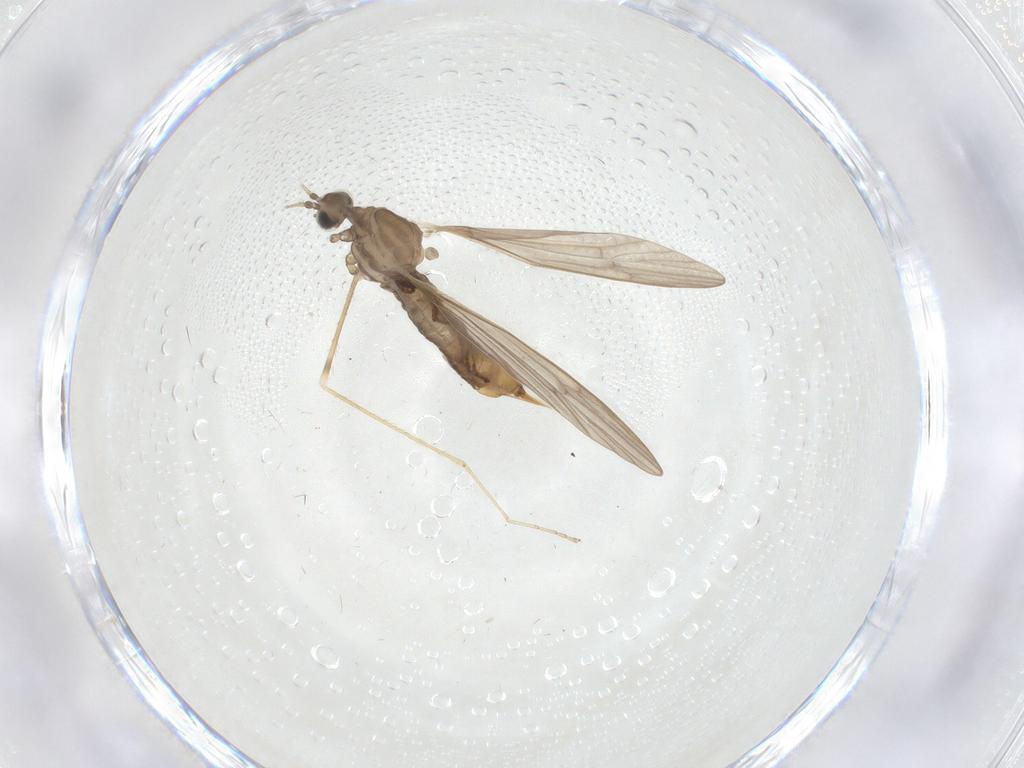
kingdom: Animalia
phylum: Arthropoda
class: Insecta
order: Diptera
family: Limoniidae
